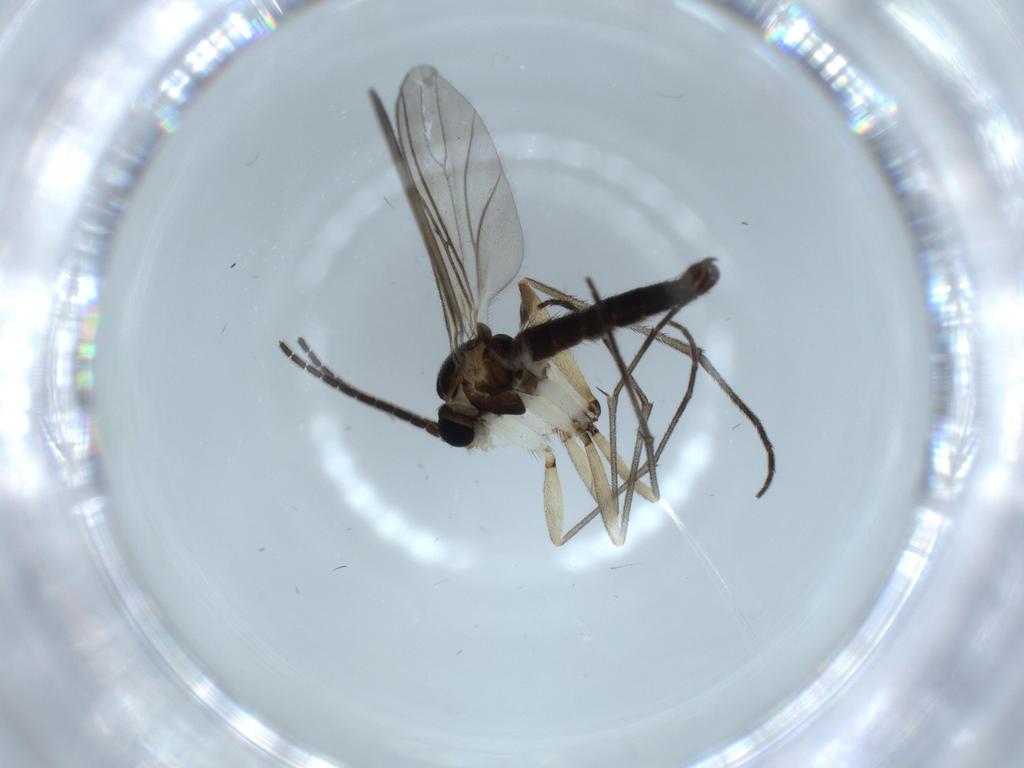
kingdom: Animalia
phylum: Arthropoda
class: Insecta
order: Diptera
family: Sciaridae
